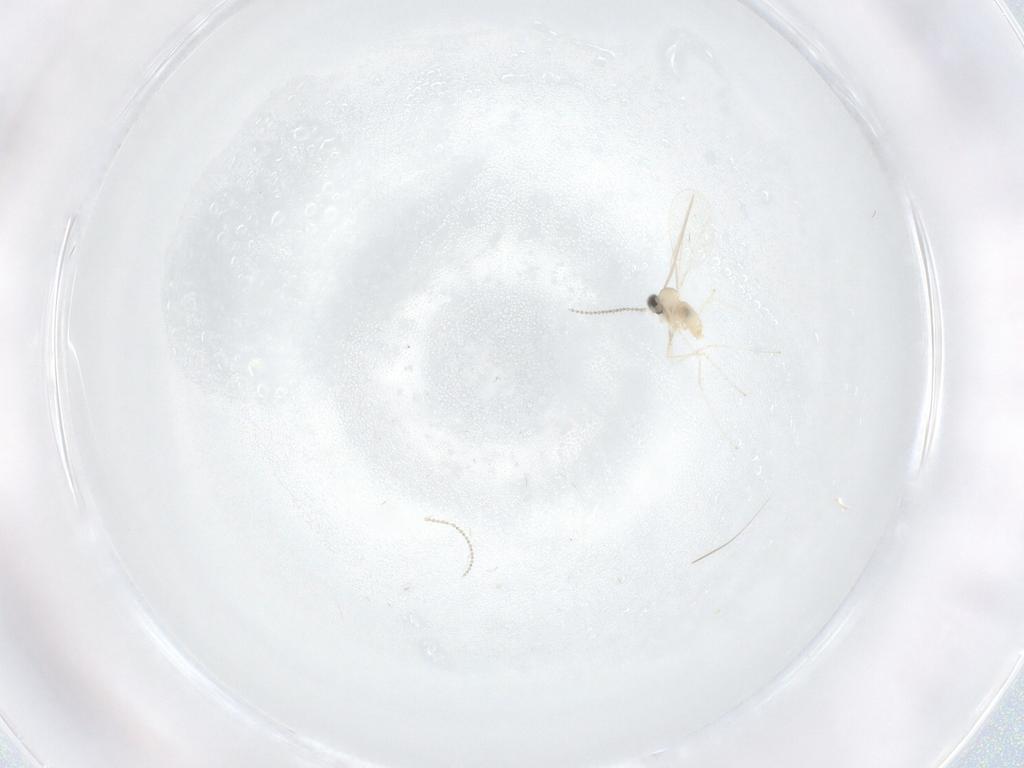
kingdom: Animalia
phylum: Arthropoda
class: Insecta
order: Diptera
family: Cecidomyiidae
